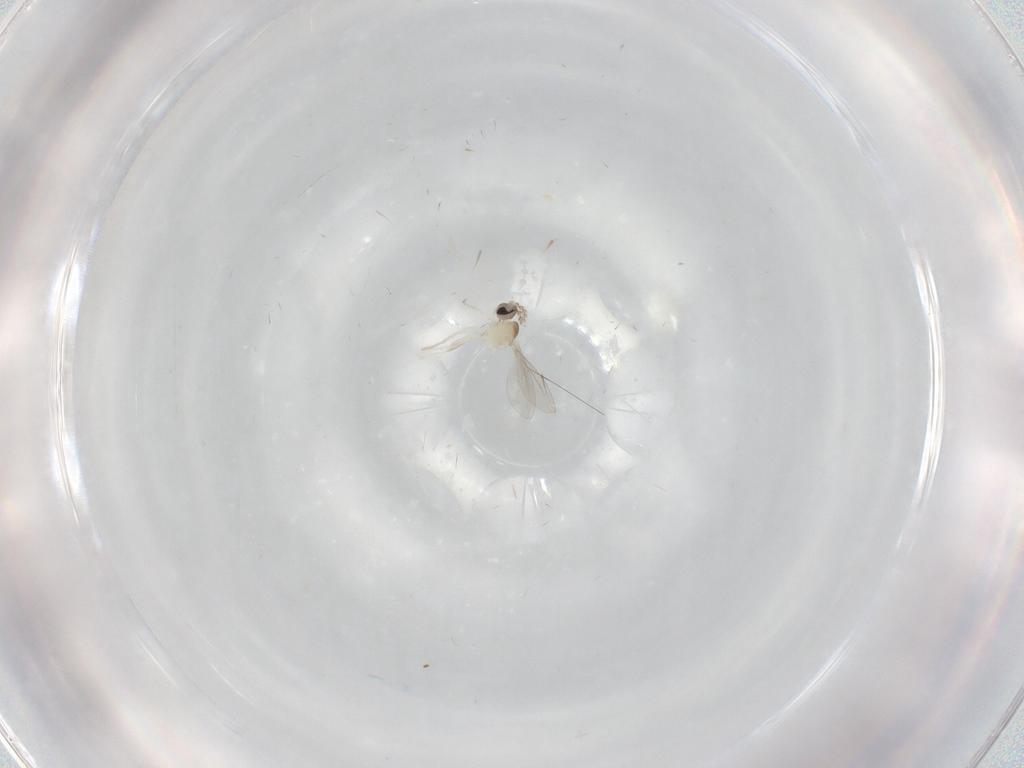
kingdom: Animalia
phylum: Arthropoda
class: Insecta
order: Diptera
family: Cecidomyiidae
